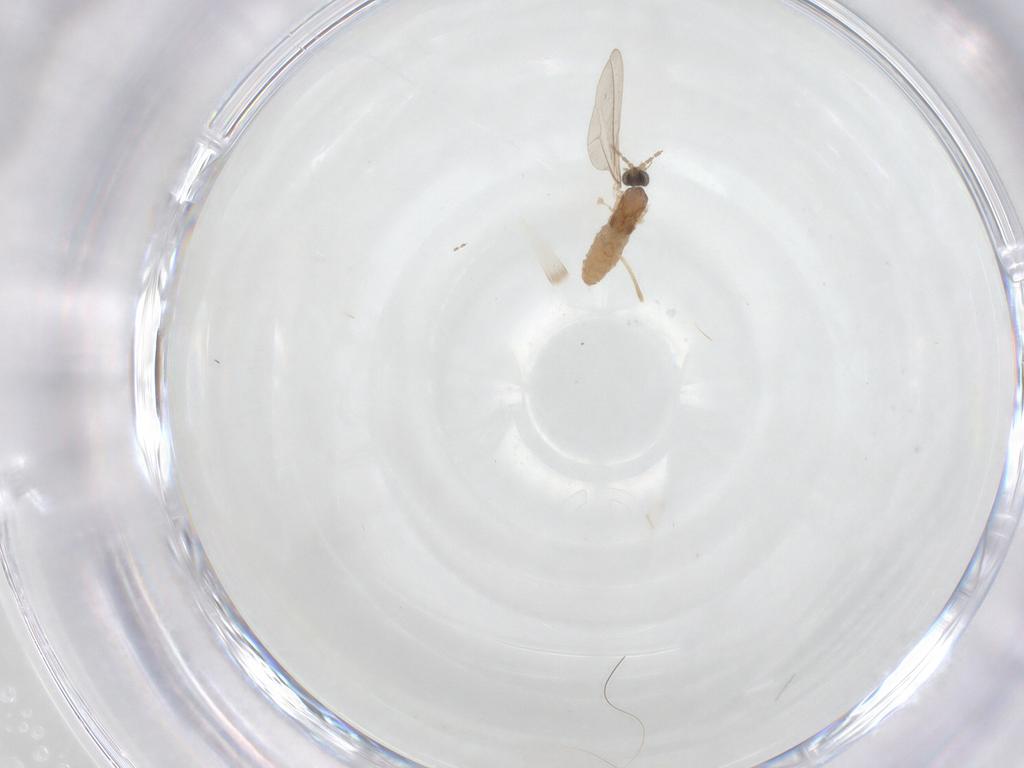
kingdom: Animalia
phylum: Arthropoda
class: Insecta
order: Diptera
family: Cecidomyiidae
